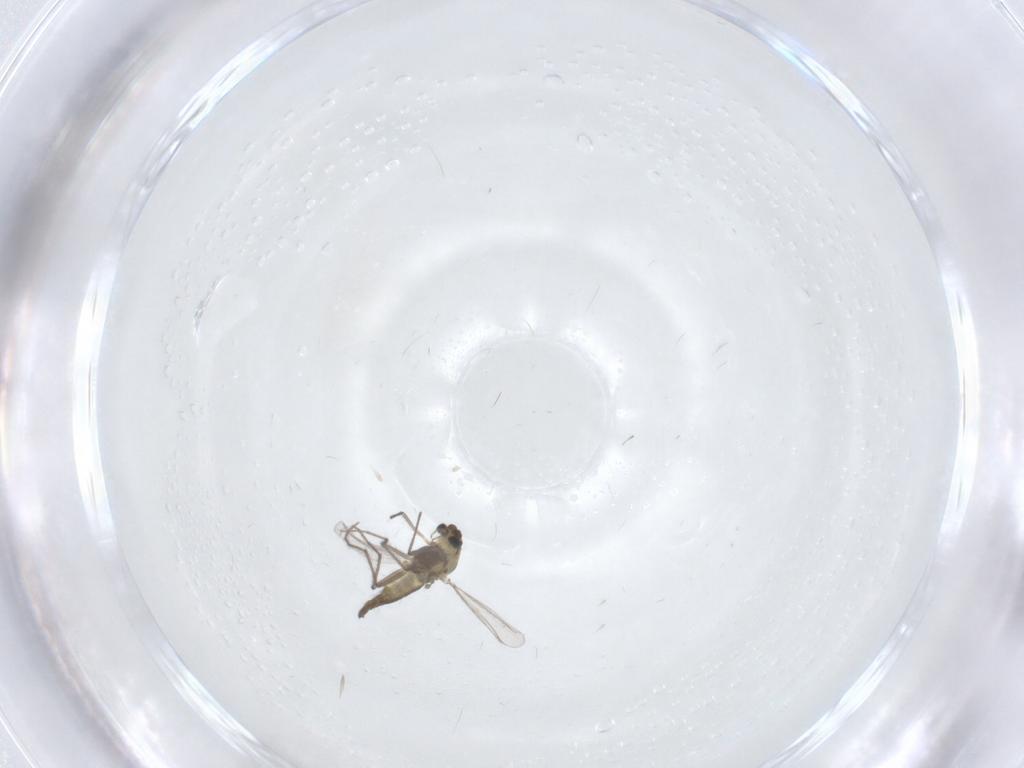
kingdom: Animalia
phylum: Arthropoda
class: Insecta
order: Diptera
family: Chironomidae
